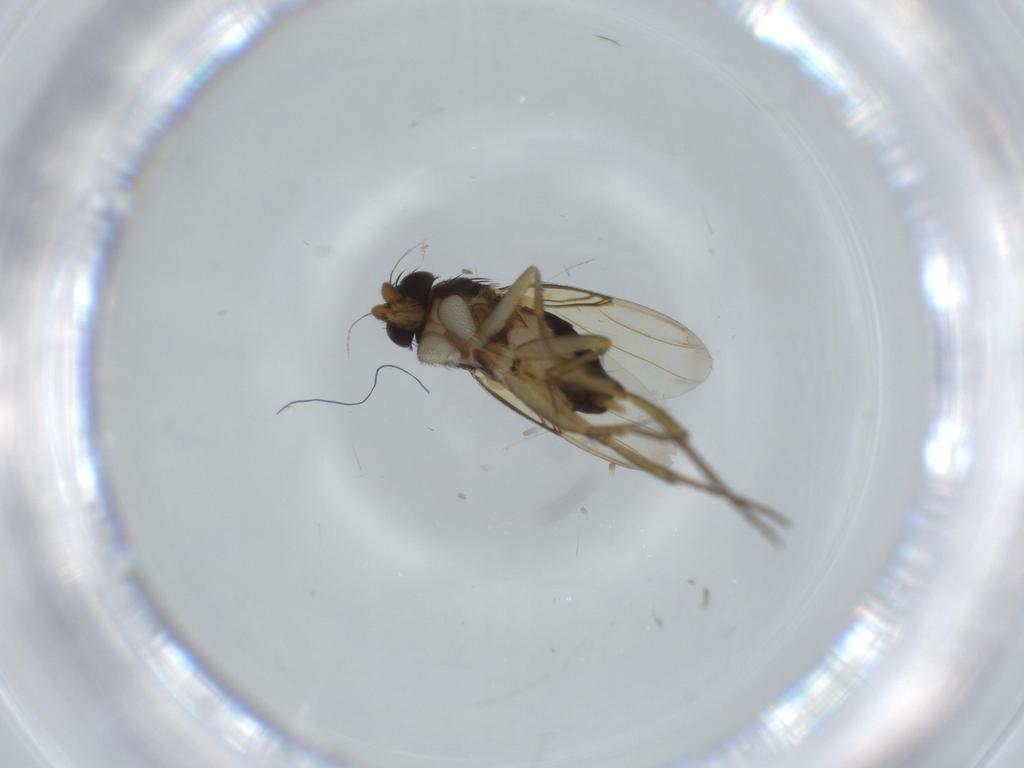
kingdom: Animalia
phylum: Arthropoda
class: Insecta
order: Diptera
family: Phoridae
